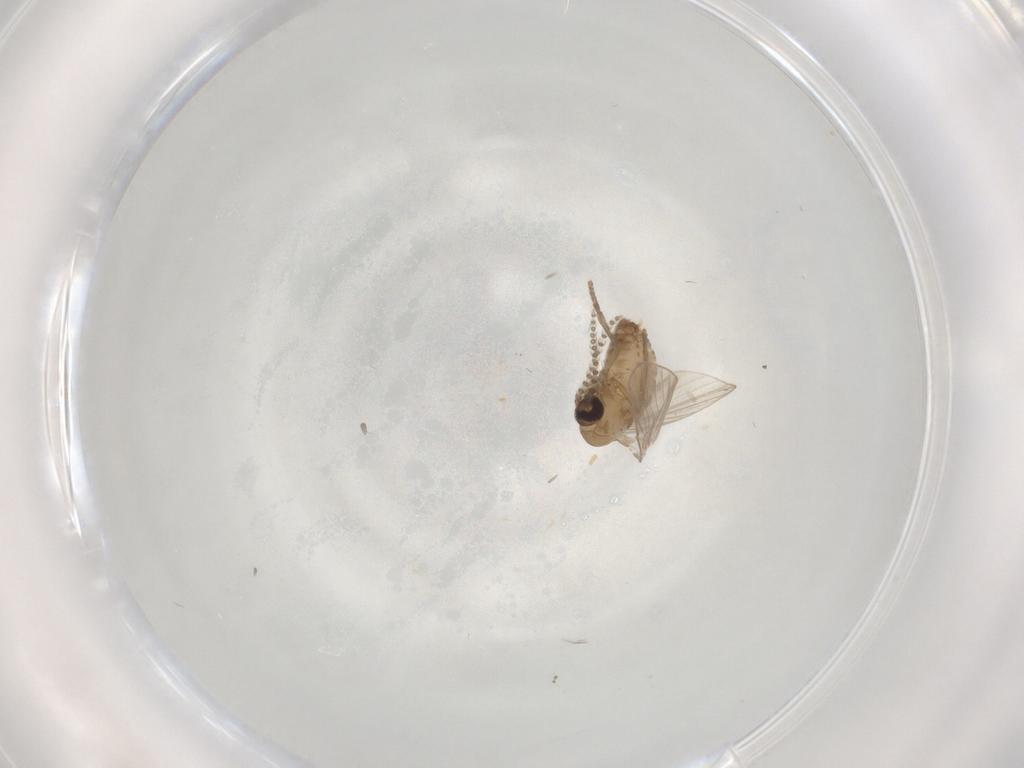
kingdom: Animalia
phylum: Arthropoda
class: Insecta
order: Diptera
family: Psychodidae
